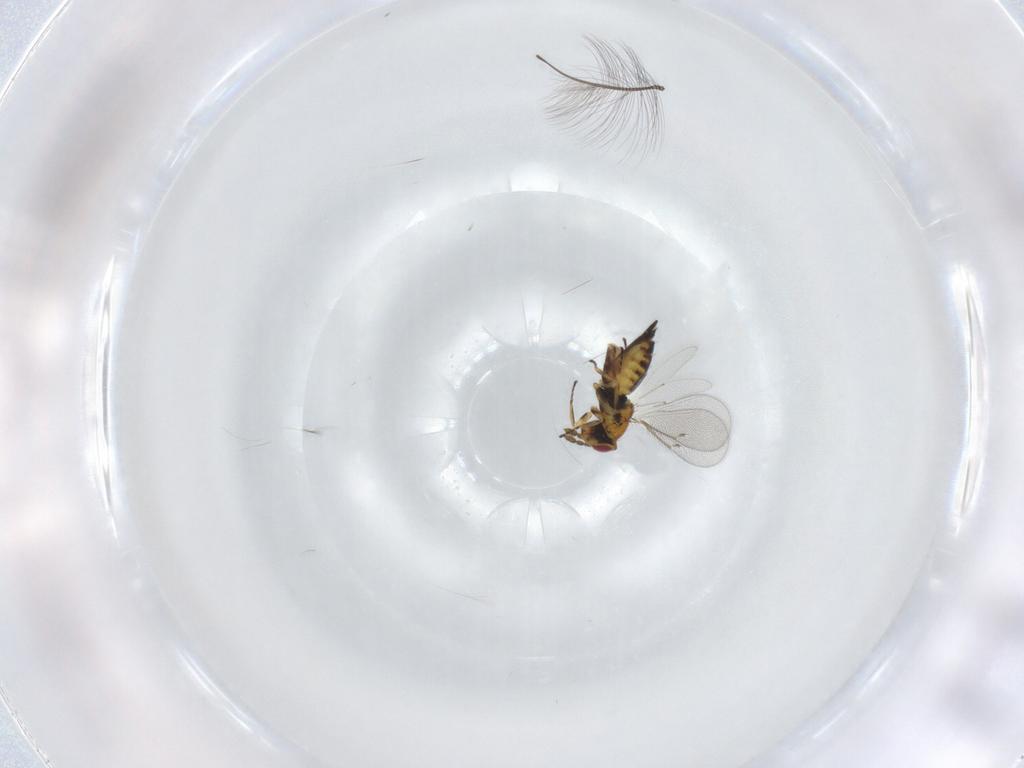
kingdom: Animalia
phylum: Arthropoda
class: Insecta
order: Hymenoptera
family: Eulophidae
